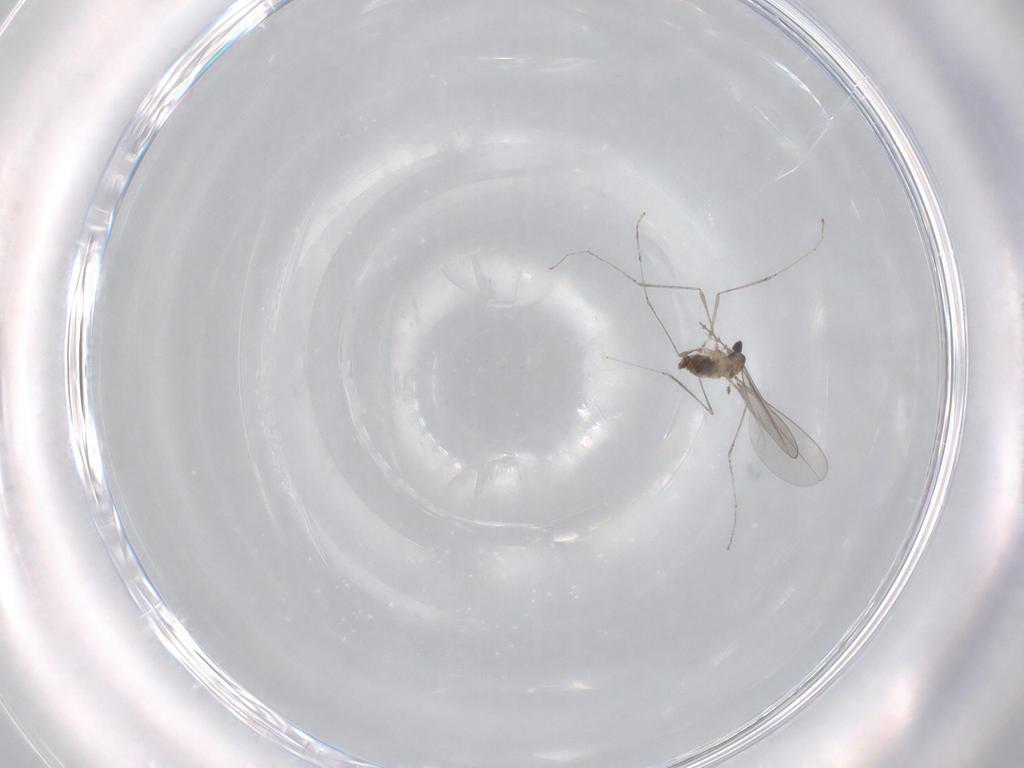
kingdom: Animalia
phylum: Arthropoda
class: Insecta
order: Diptera
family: Cecidomyiidae
